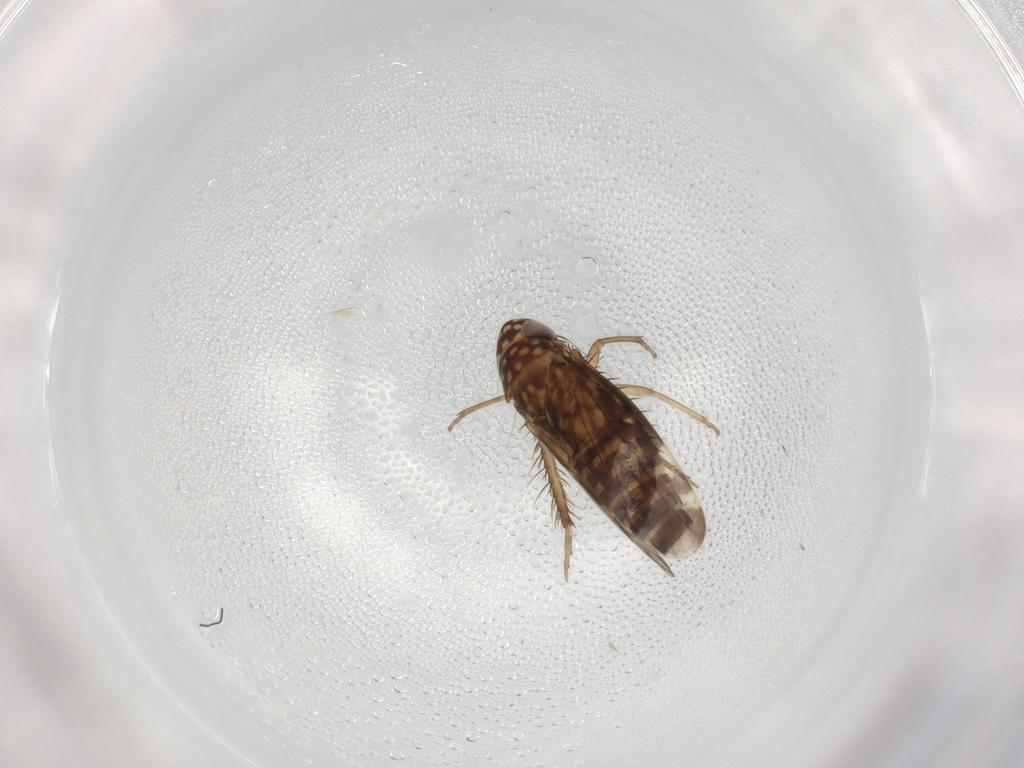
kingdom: Animalia
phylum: Arthropoda
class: Insecta
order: Hemiptera
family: Cicadellidae
